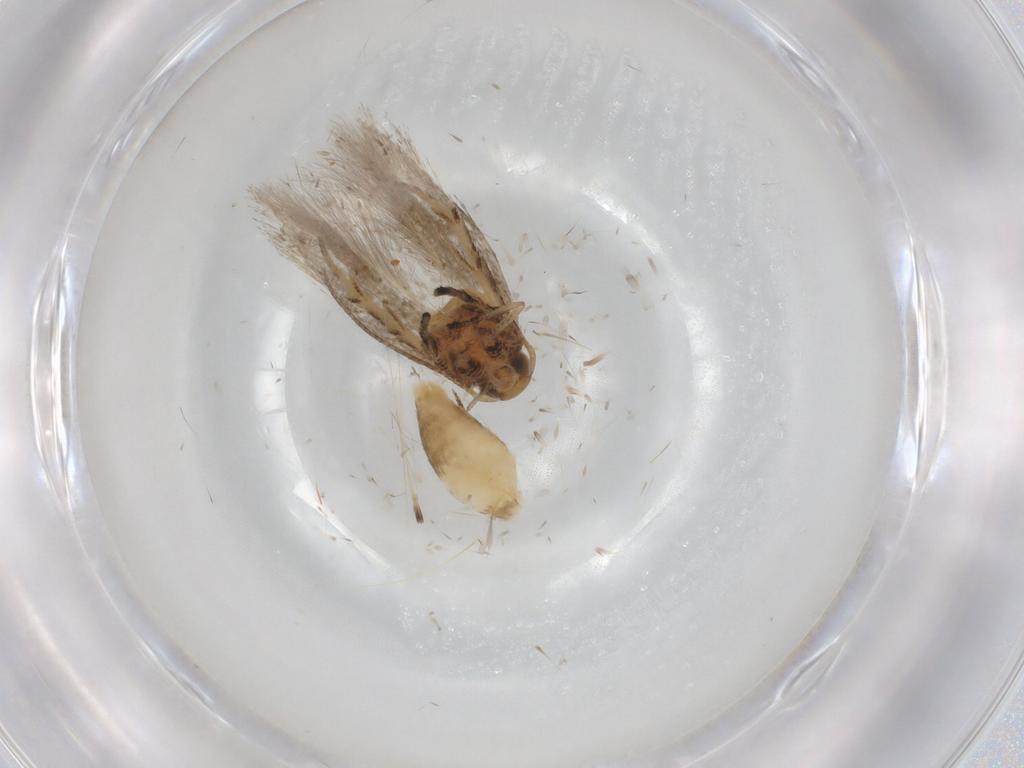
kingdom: Animalia
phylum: Arthropoda
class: Insecta
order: Lepidoptera
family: Gelechiidae
